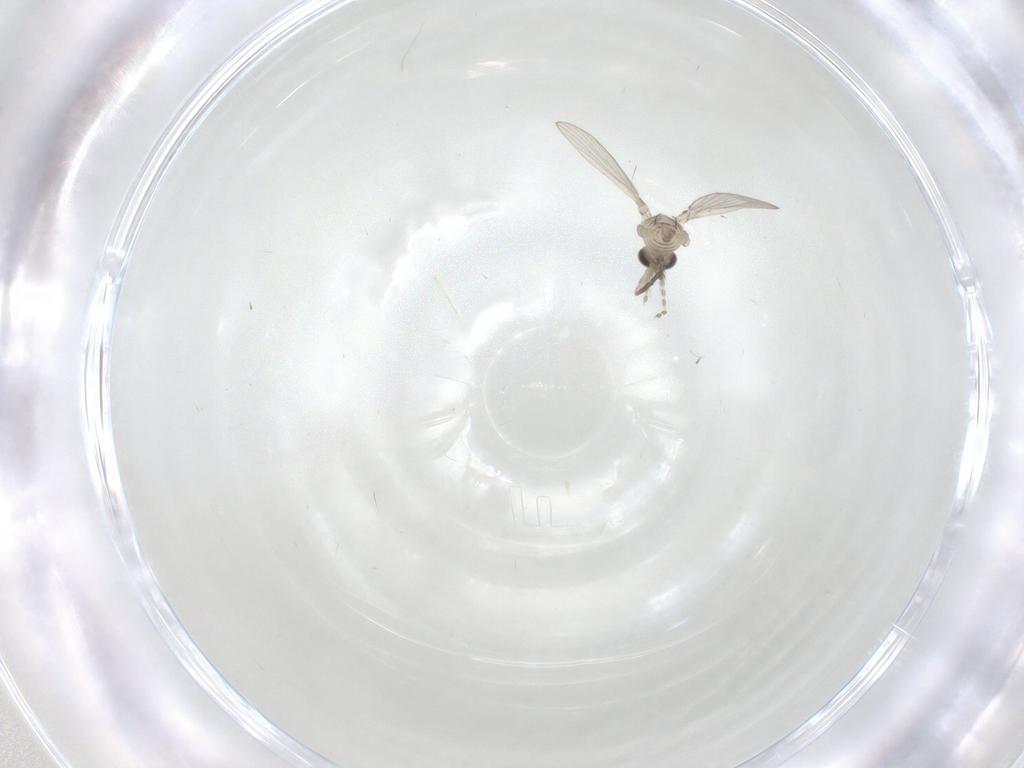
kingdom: Animalia
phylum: Arthropoda
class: Insecta
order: Diptera
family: Psychodidae
